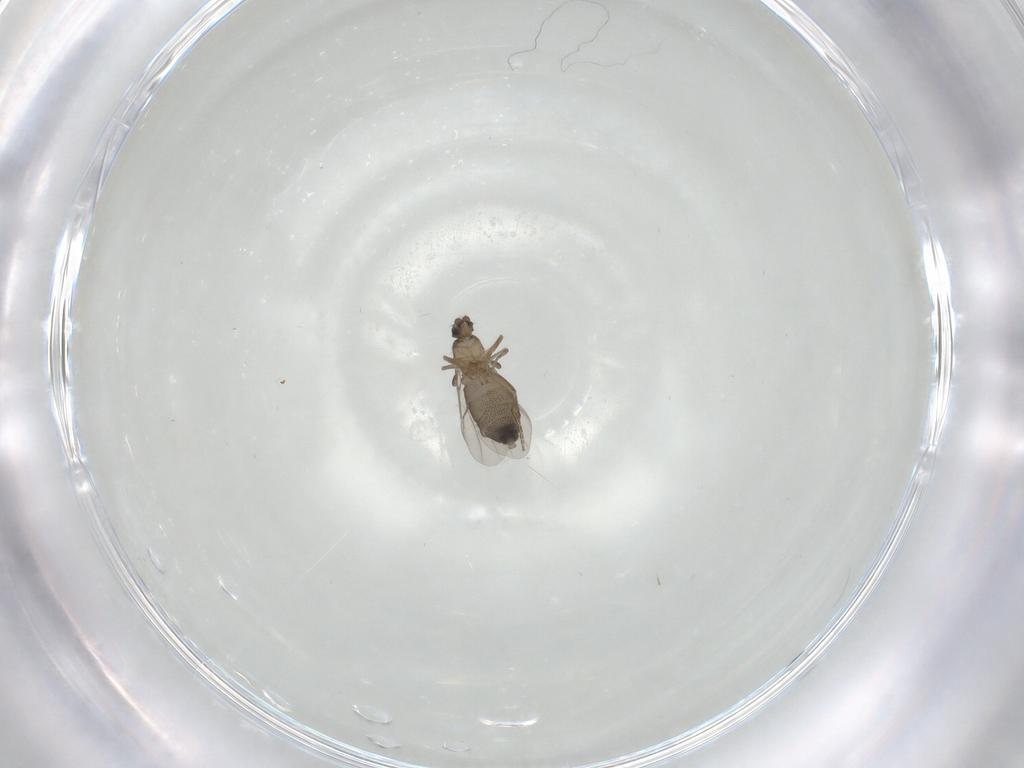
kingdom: Animalia
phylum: Arthropoda
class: Insecta
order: Diptera
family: Phoridae
